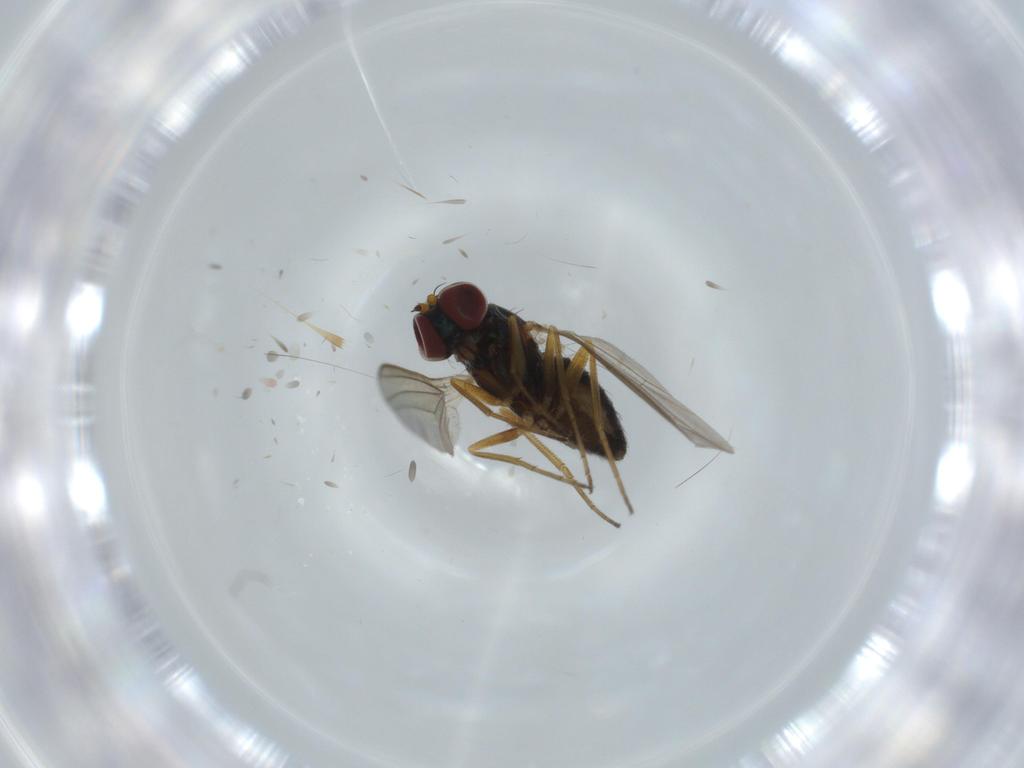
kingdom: Animalia
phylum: Arthropoda
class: Insecta
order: Diptera
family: Dolichopodidae
